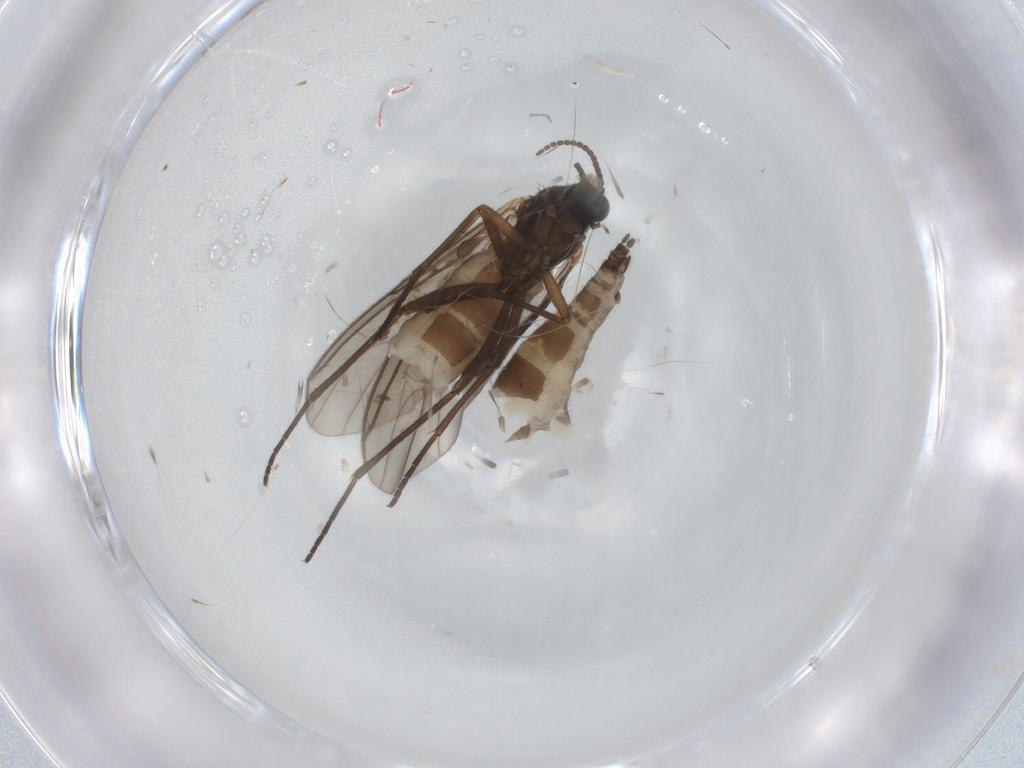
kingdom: Animalia
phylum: Arthropoda
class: Insecta
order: Diptera
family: Sciaridae
